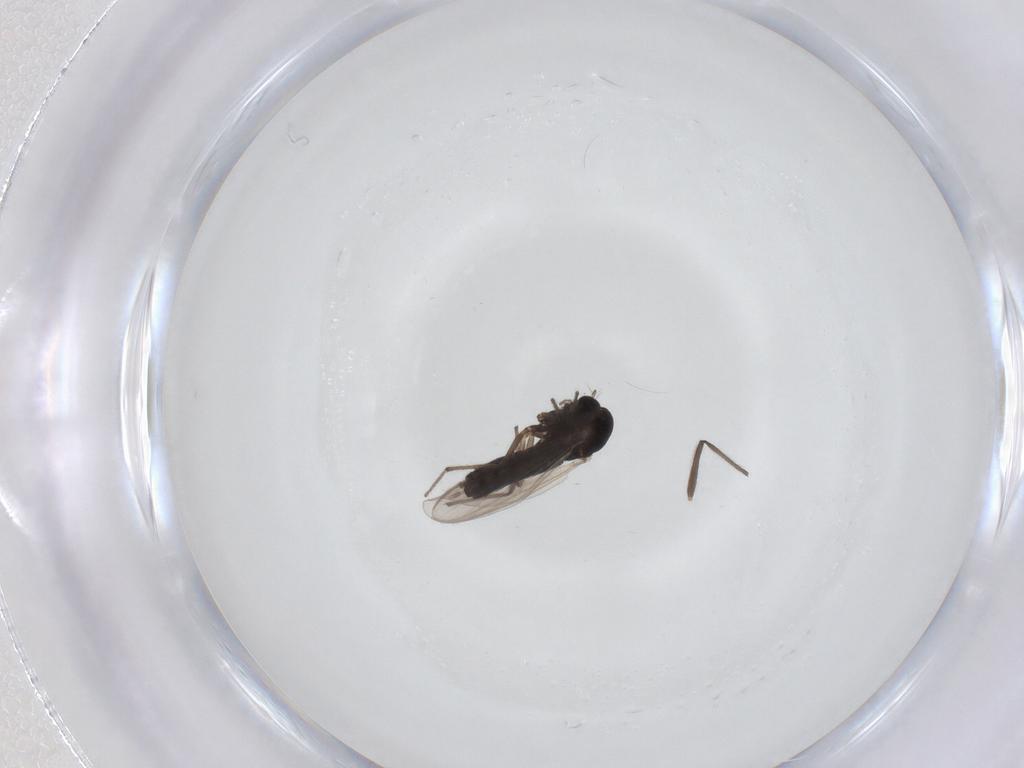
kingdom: Animalia
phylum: Arthropoda
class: Insecta
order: Diptera
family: Chironomidae
